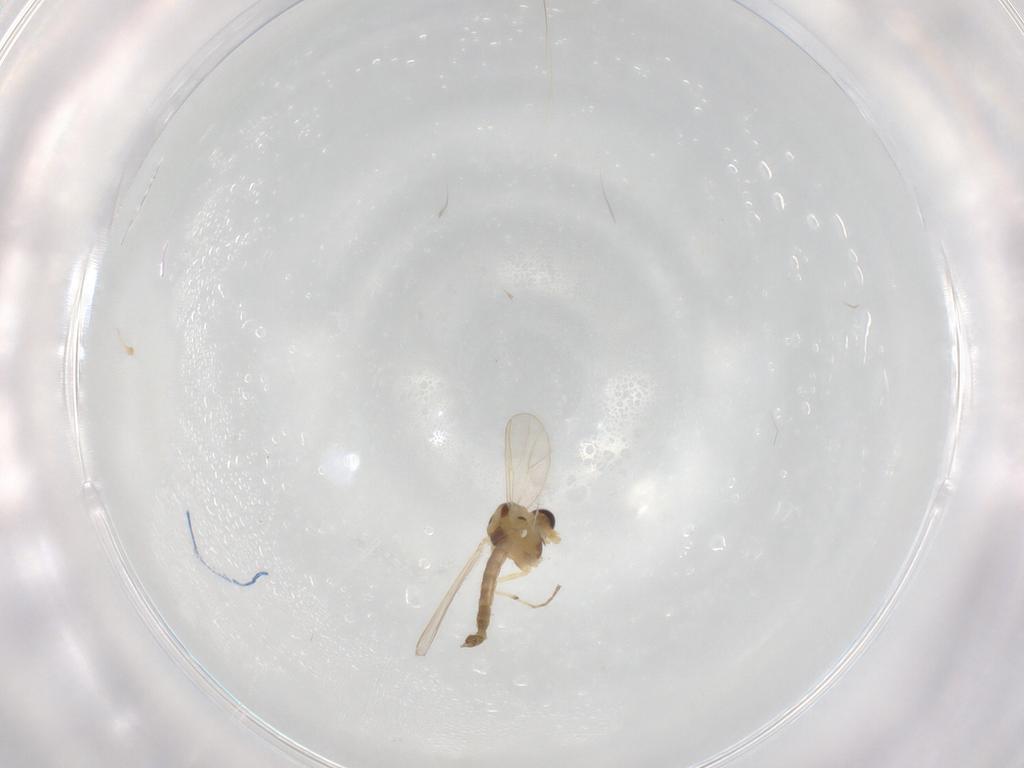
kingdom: Animalia
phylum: Arthropoda
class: Insecta
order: Diptera
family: Chironomidae
